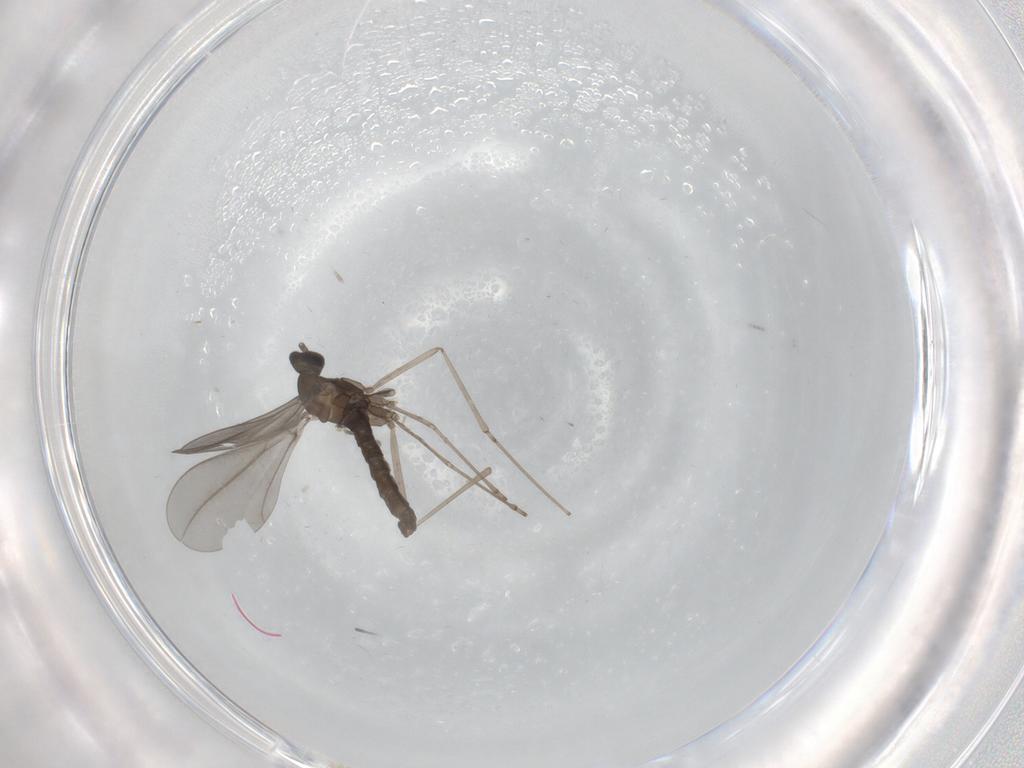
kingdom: Animalia
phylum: Arthropoda
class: Insecta
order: Diptera
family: Cecidomyiidae
